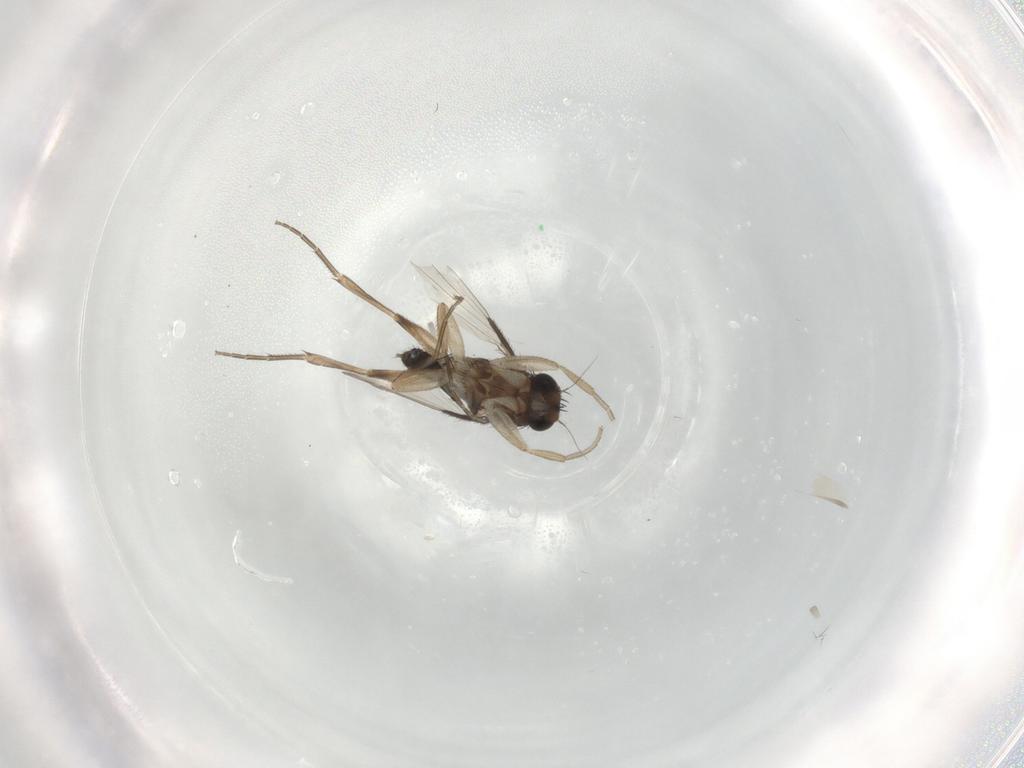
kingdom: Animalia
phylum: Arthropoda
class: Insecta
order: Diptera
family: Phoridae
